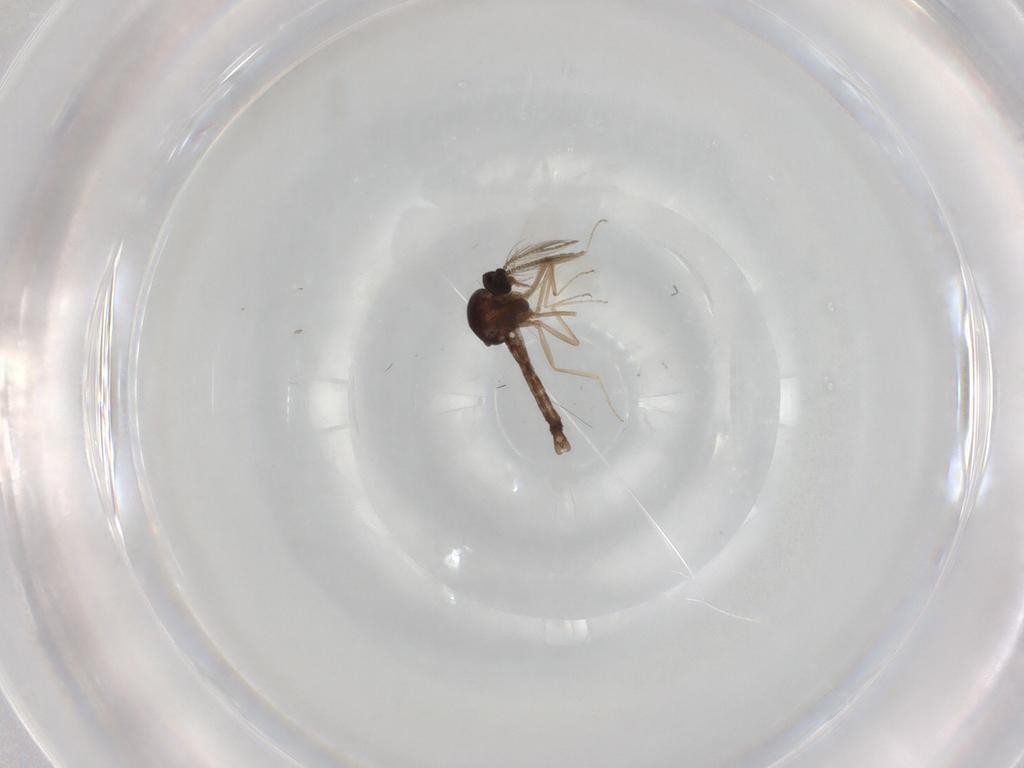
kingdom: Animalia
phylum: Arthropoda
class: Insecta
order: Diptera
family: Ceratopogonidae
